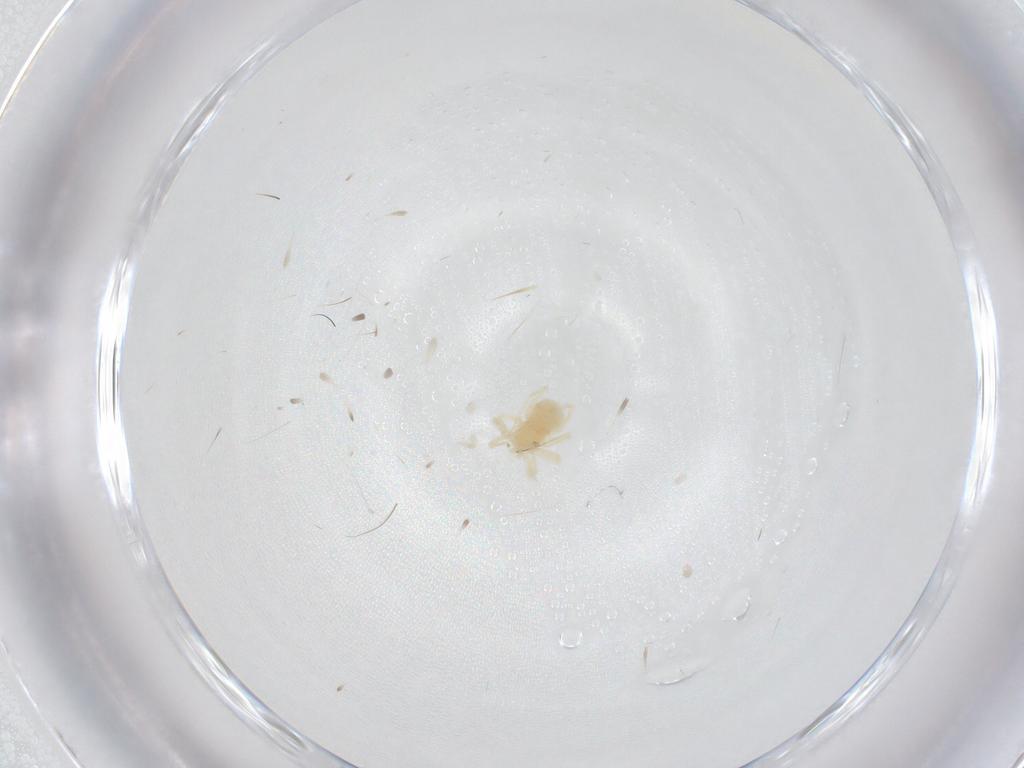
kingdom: Animalia
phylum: Arthropoda
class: Arachnida
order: Trombidiformes
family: Anystidae
